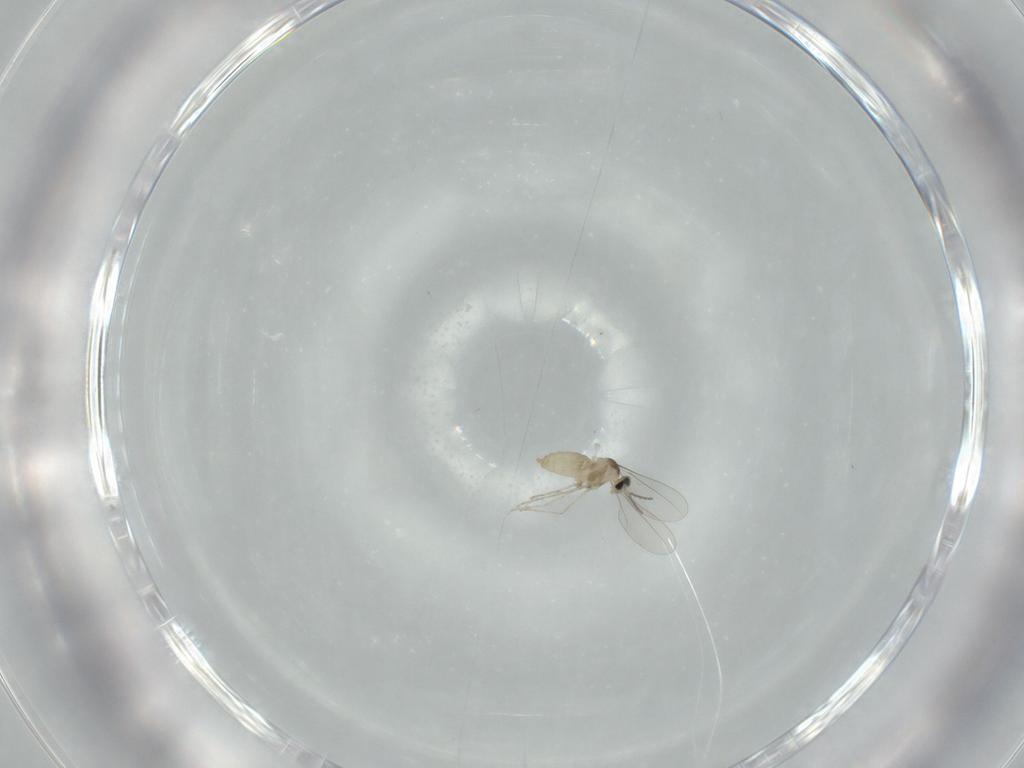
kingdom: Animalia
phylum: Arthropoda
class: Insecta
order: Diptera
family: Cecidomyiidae
